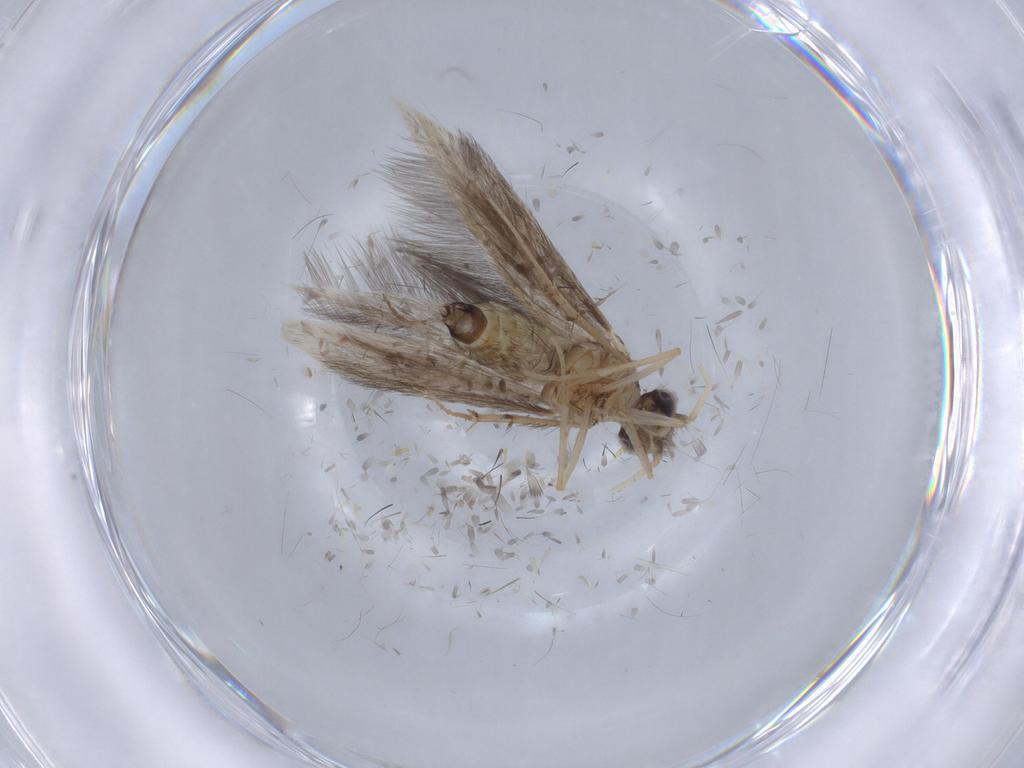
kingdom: Animalia
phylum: Arthropoda
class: Insecta
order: Trichoptera
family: Hydroptilidae
